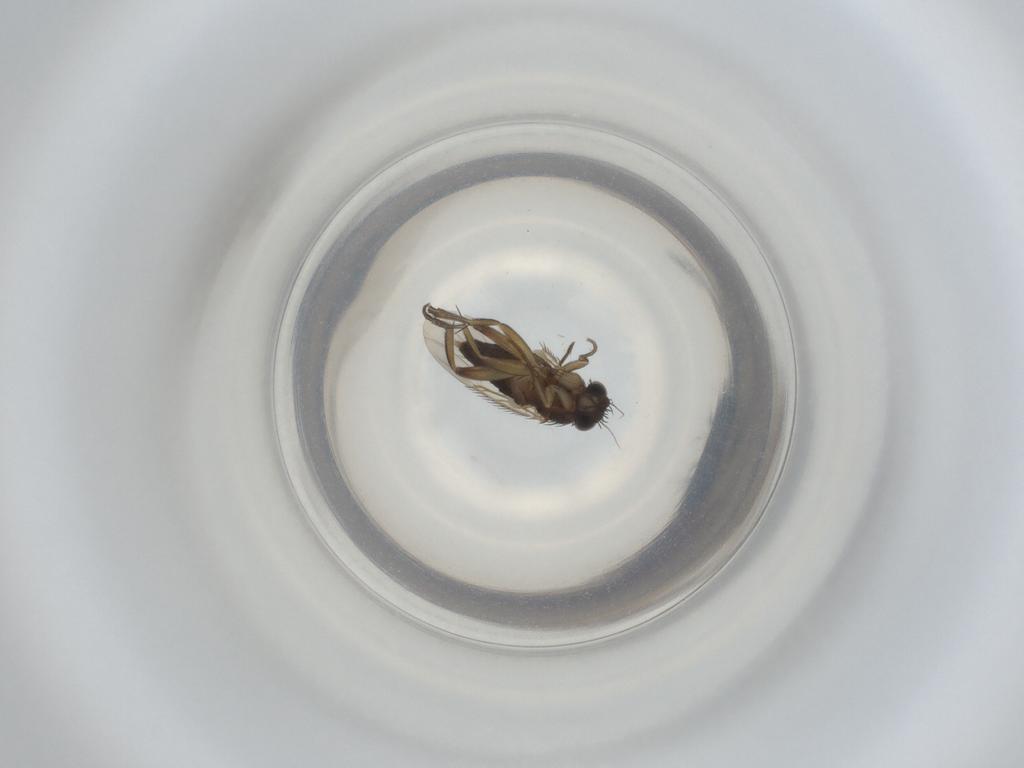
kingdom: Animalia
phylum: Arthropoda
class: Insecta
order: Diptera
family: Phoridae
